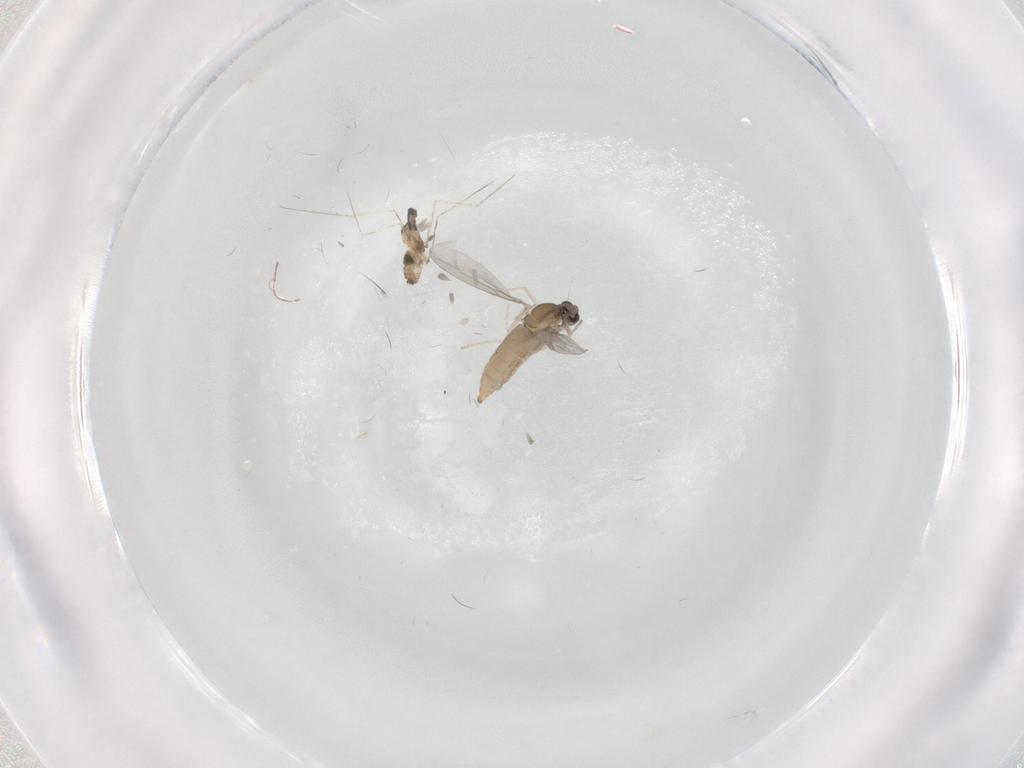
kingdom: Animalia
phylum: Arthropoda
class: Insecta
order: Diptera
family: Cecidomyiidae
